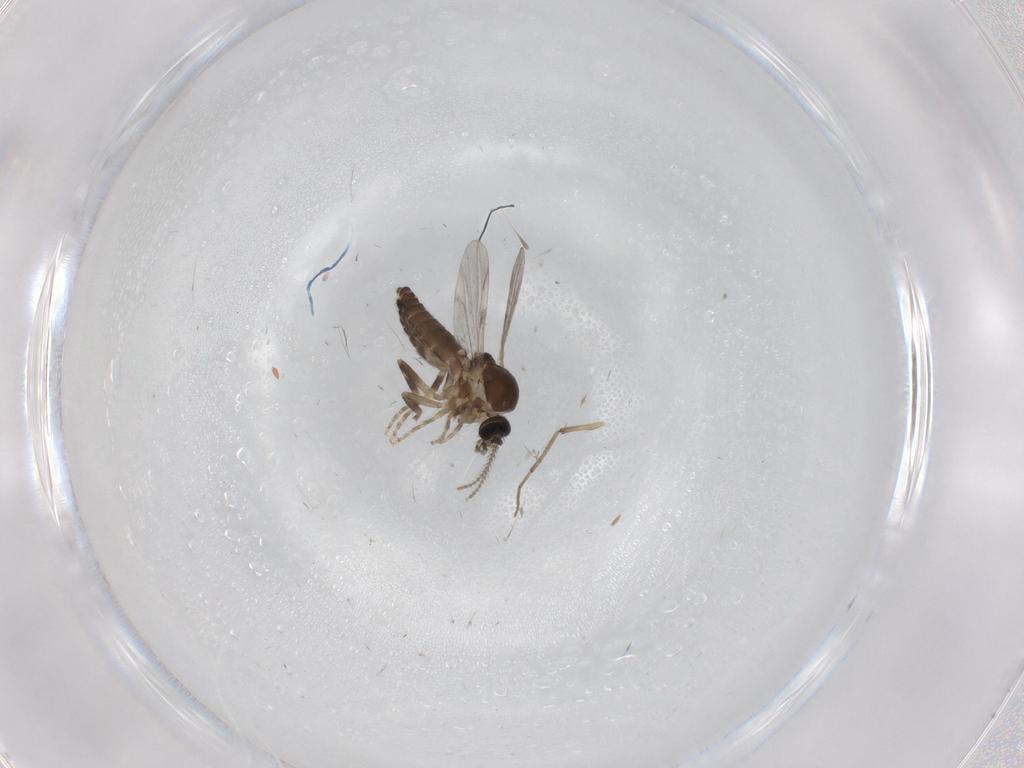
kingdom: Animalia
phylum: Arthropoda
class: Insecta
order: Diptera
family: Ceratopogonidae
